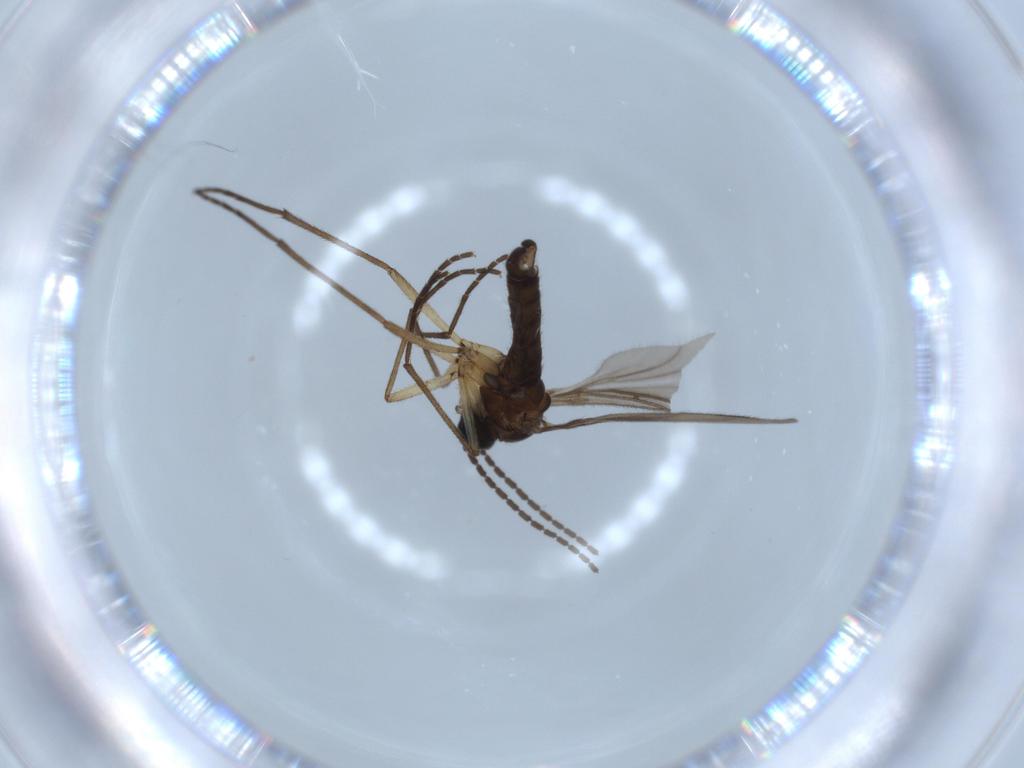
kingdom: Animalia
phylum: Arthropoda
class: Insecta
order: Diptera
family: Sciaridae
